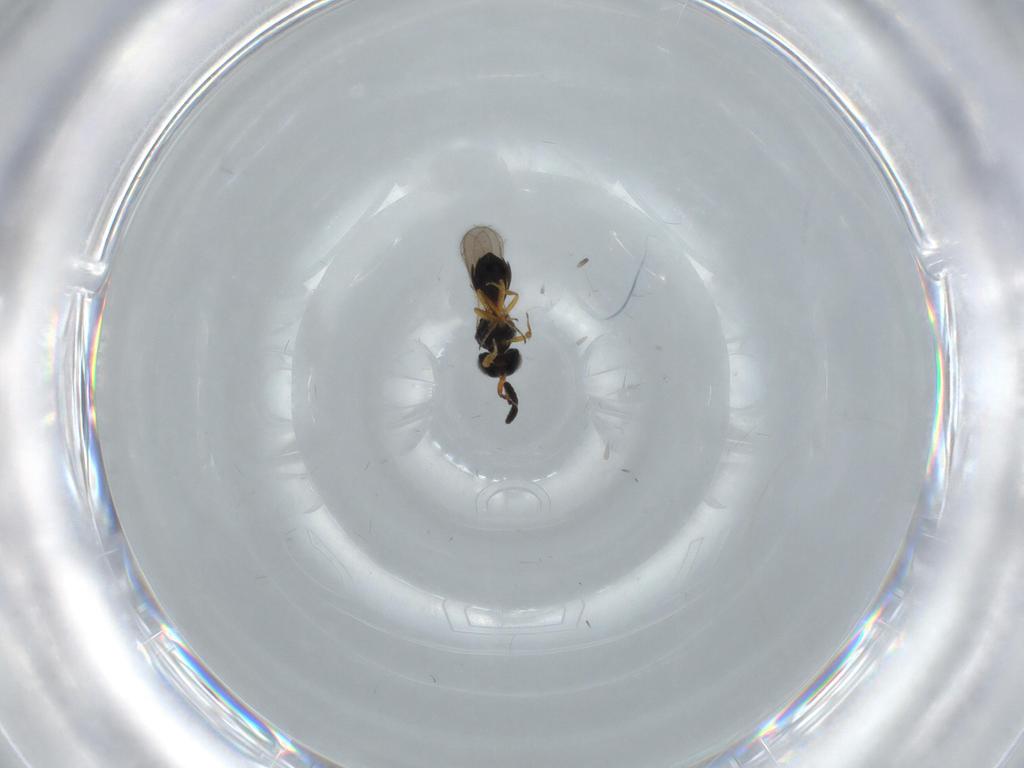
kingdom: Animalia
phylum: Arthropoda
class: Insecta
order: Hymenoptera
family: Scelionidae
